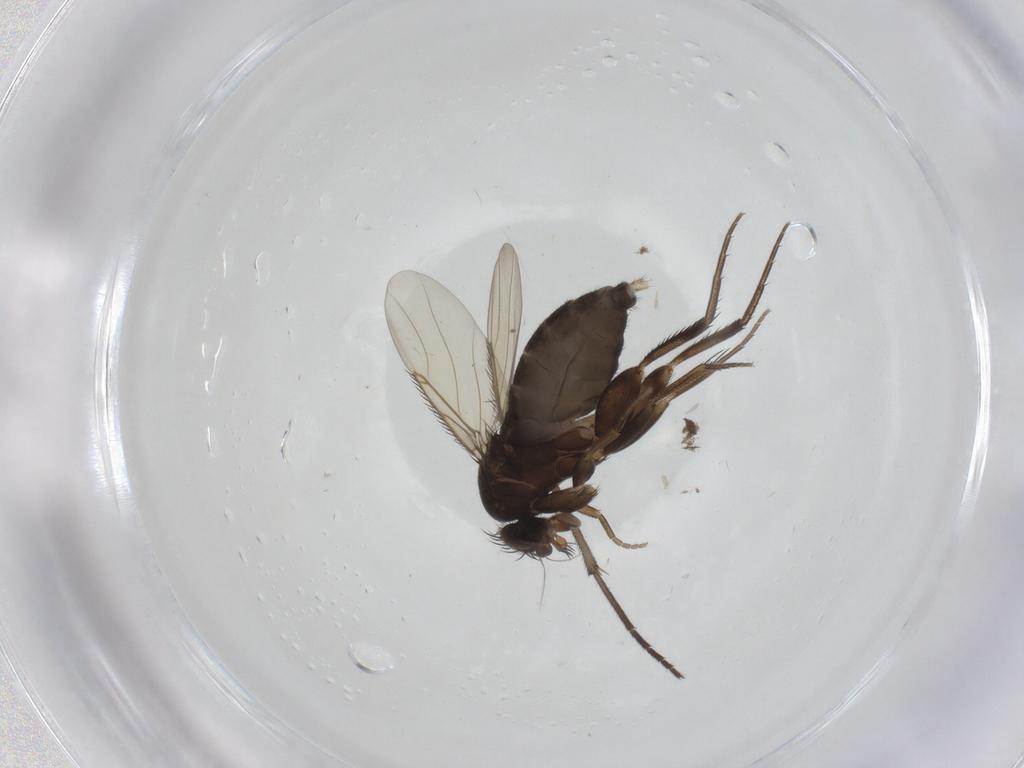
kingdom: Animalia
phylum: Arthropoda
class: Insecta
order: Diptera
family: Phoridae
